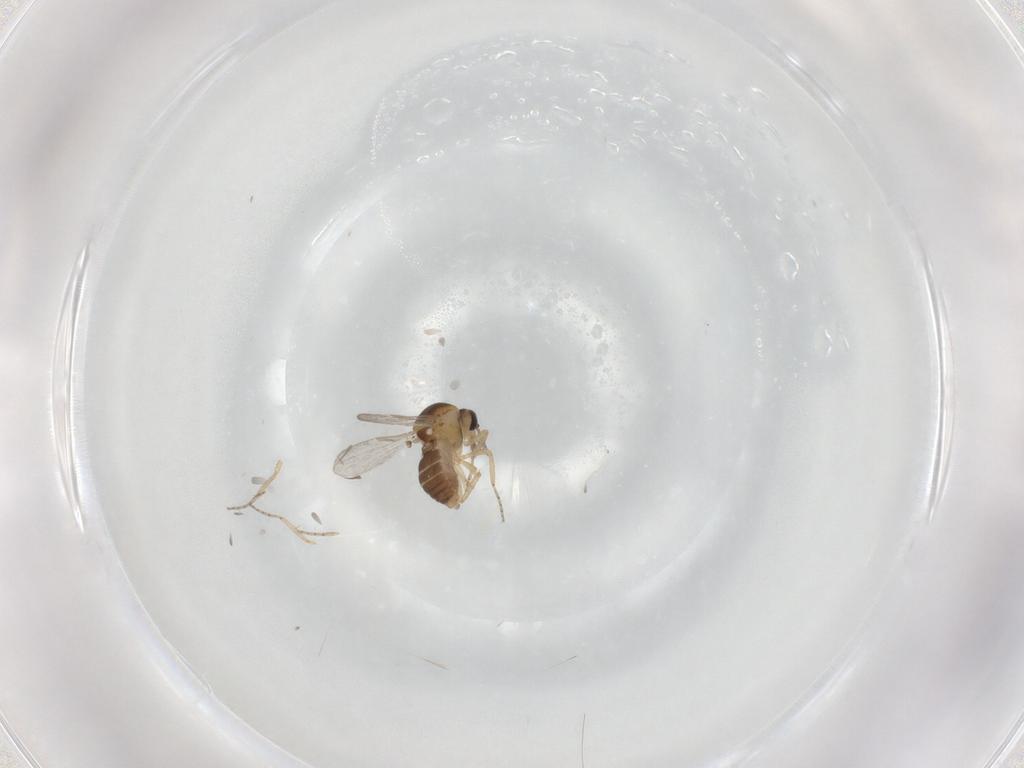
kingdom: Animalia
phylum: Arthropoda
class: Insecta
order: Diptera
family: Ceratopogonidae
